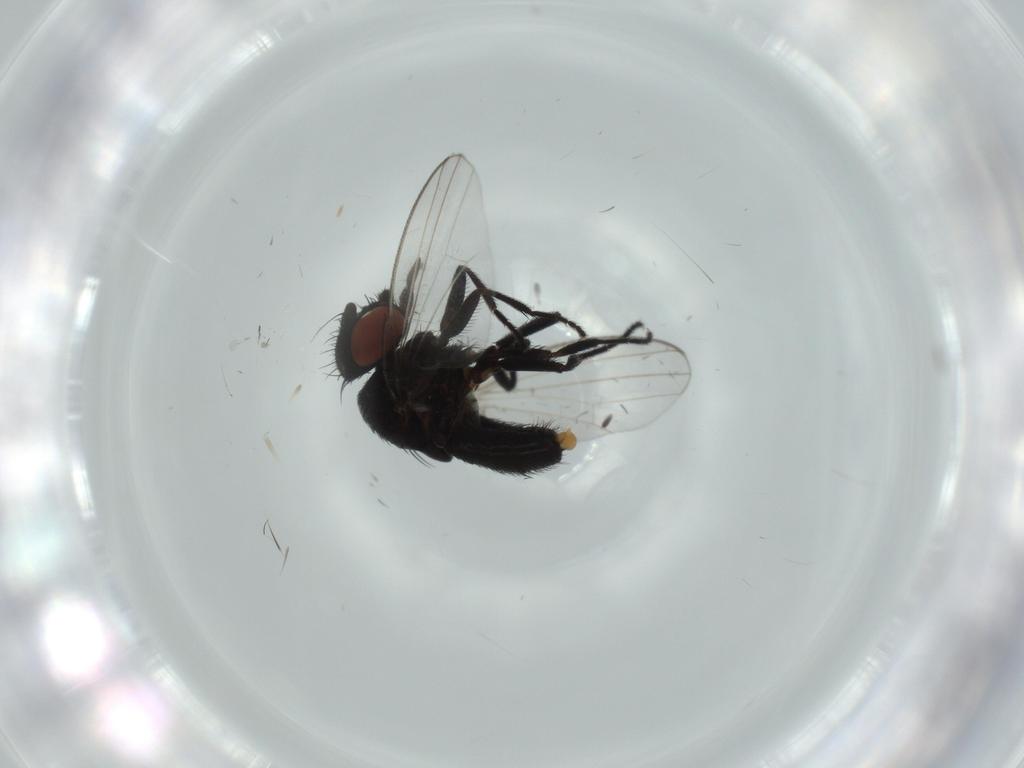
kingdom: Animalia
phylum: Arthropoda
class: Insecta
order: Diptera
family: Milichiidae
